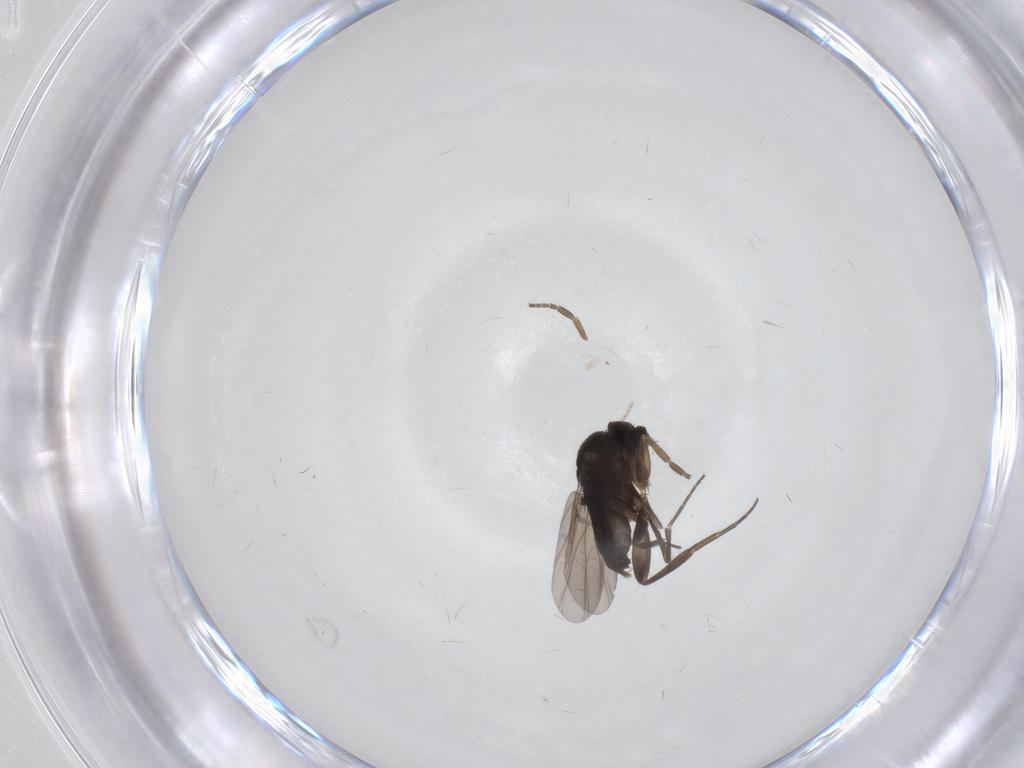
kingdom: Animalia
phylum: Arthropoda
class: Insecta
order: Diptera
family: Phoridae
